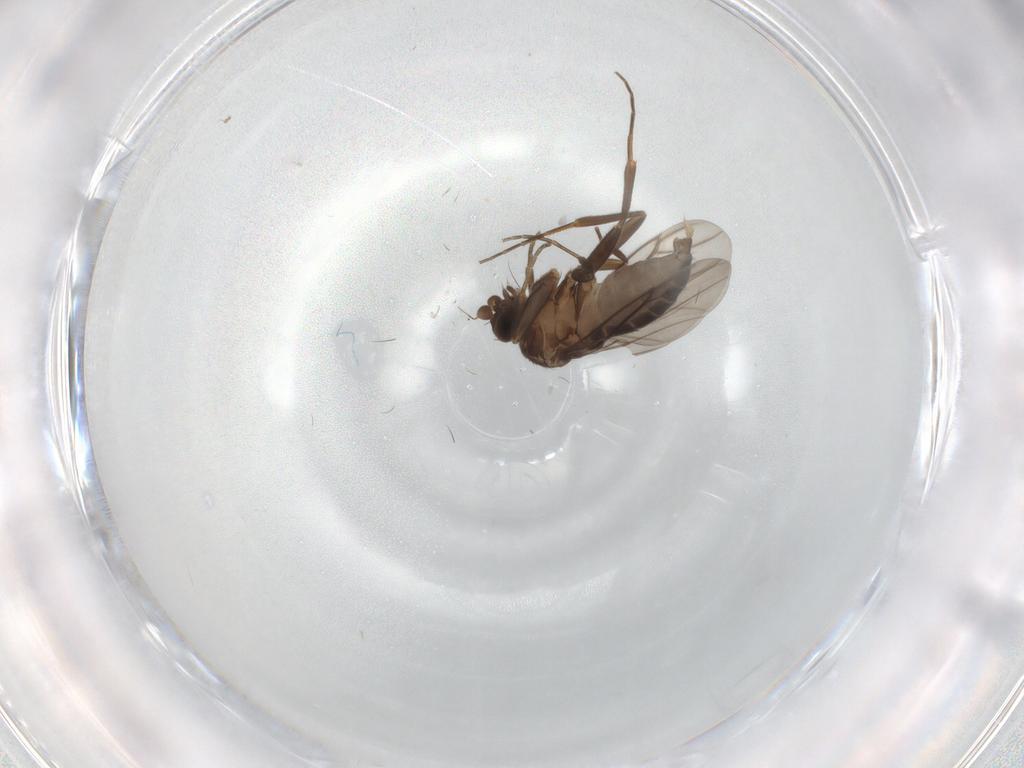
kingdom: Animalia
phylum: Arthropoda
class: Insecta
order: Diptera
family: Phoridae
